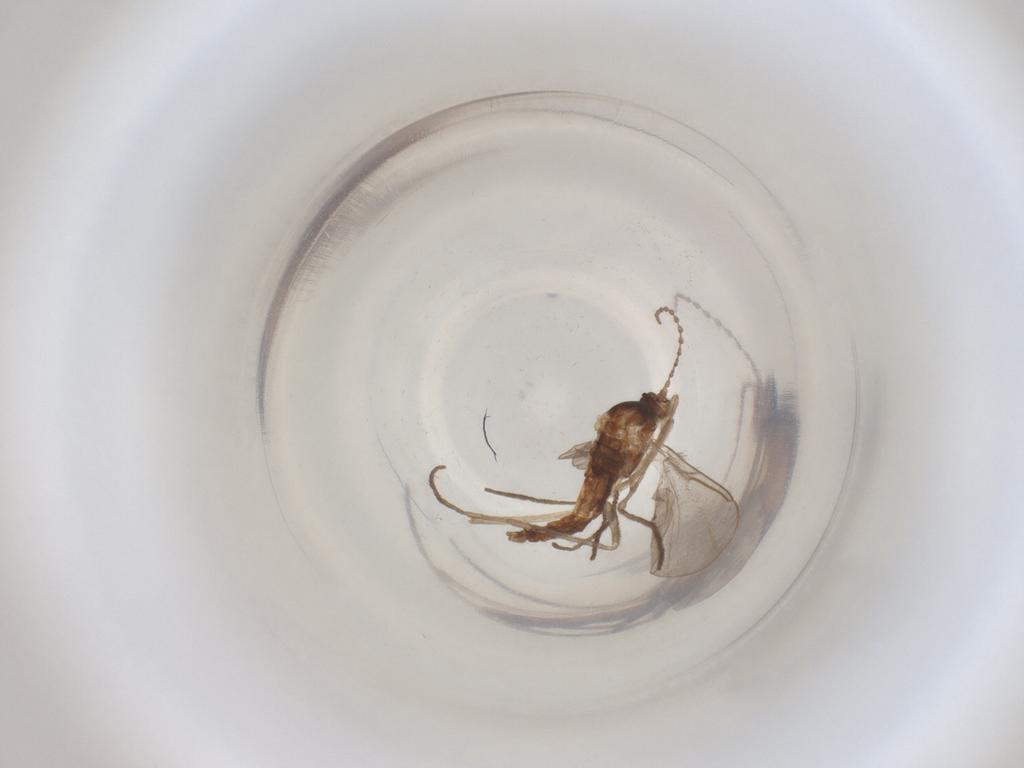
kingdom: Animalia
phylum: Arthropoda
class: Insecta
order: Diptera
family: Cecidomyiidae
